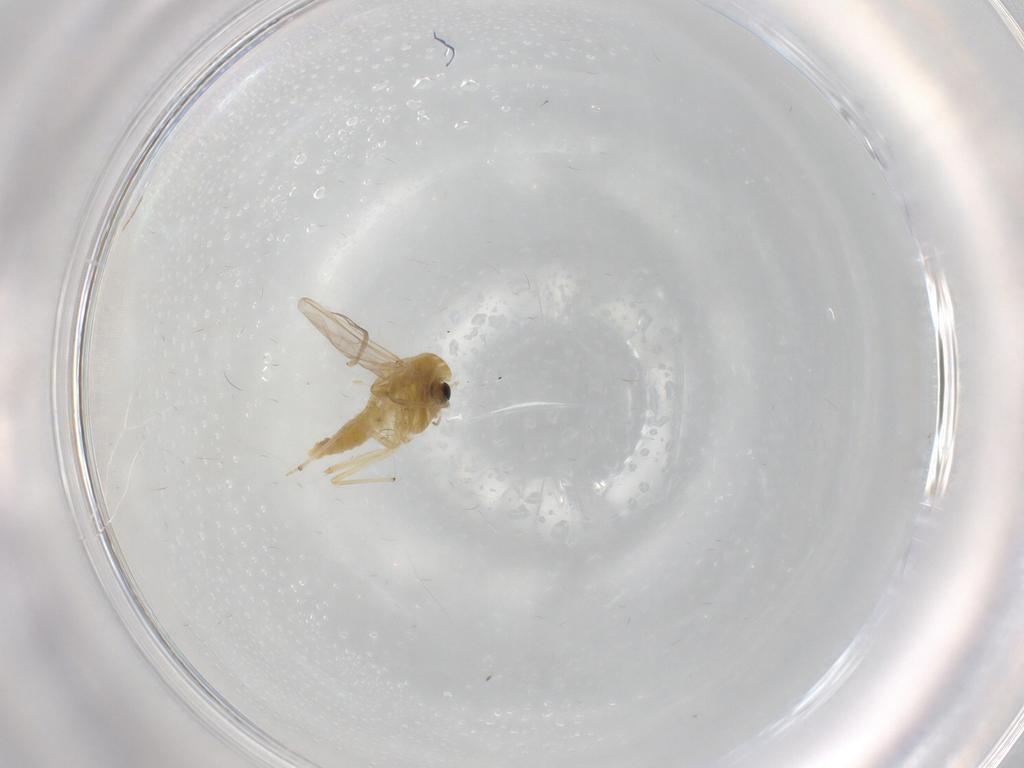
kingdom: Animalia
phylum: Arthropoda
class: Insecta
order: Diptera
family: Chironomidae
